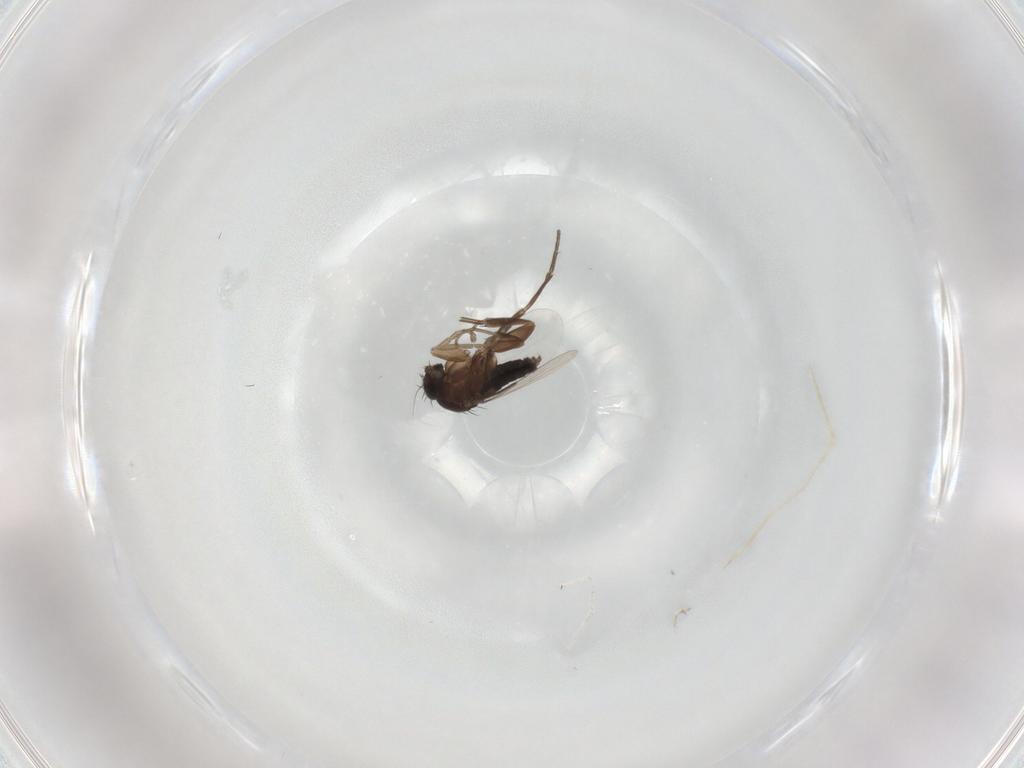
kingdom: Animalia
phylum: Arthropoda
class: Insecta
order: Diptera
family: Phoridae
